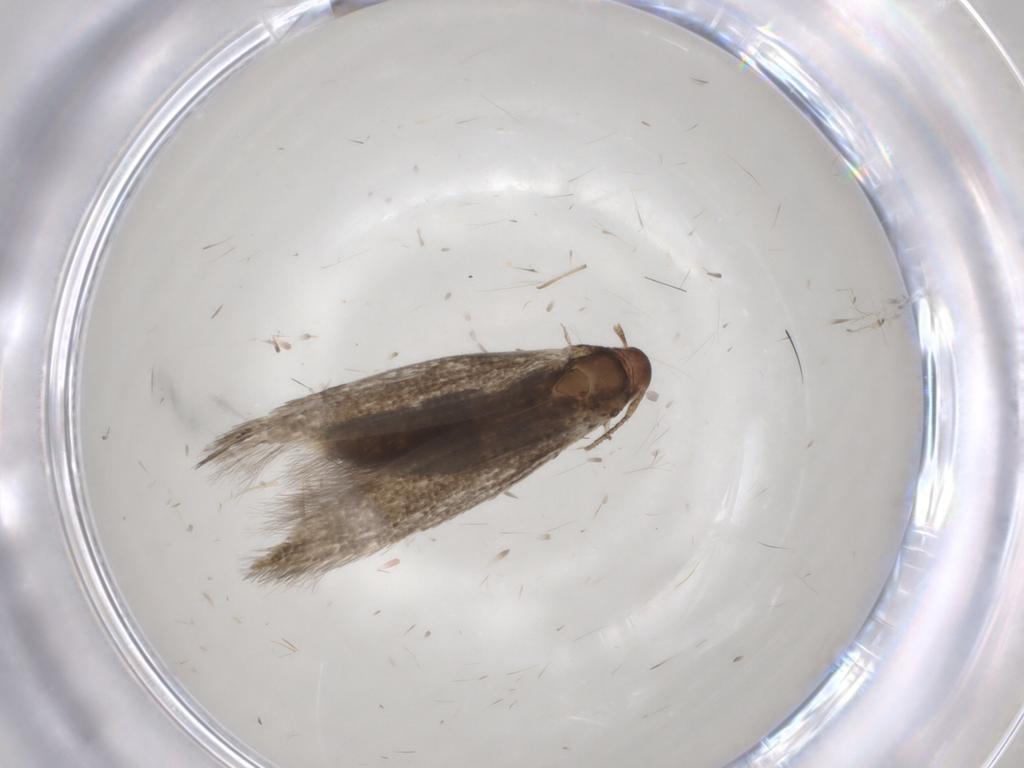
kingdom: Animalia
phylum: Arthropoda
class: Insecta
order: Lepidoptera
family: Momphidae
